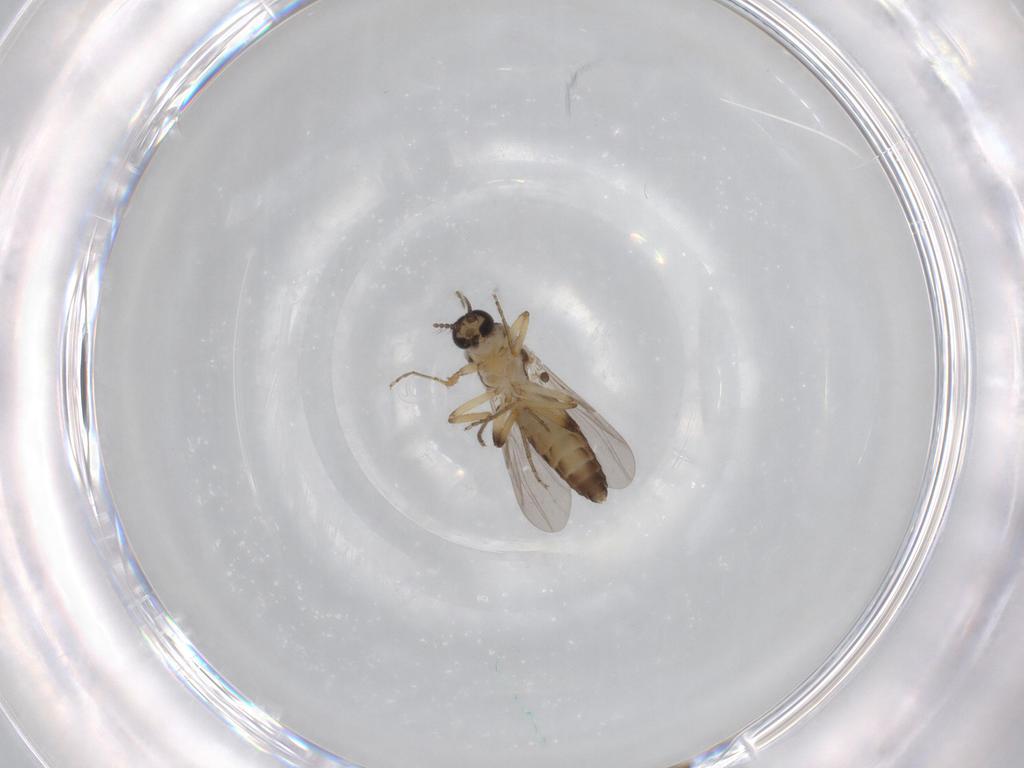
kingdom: Animalia
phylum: Arthropoda
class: Insecta
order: Diptera
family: Ceratopogonidae
